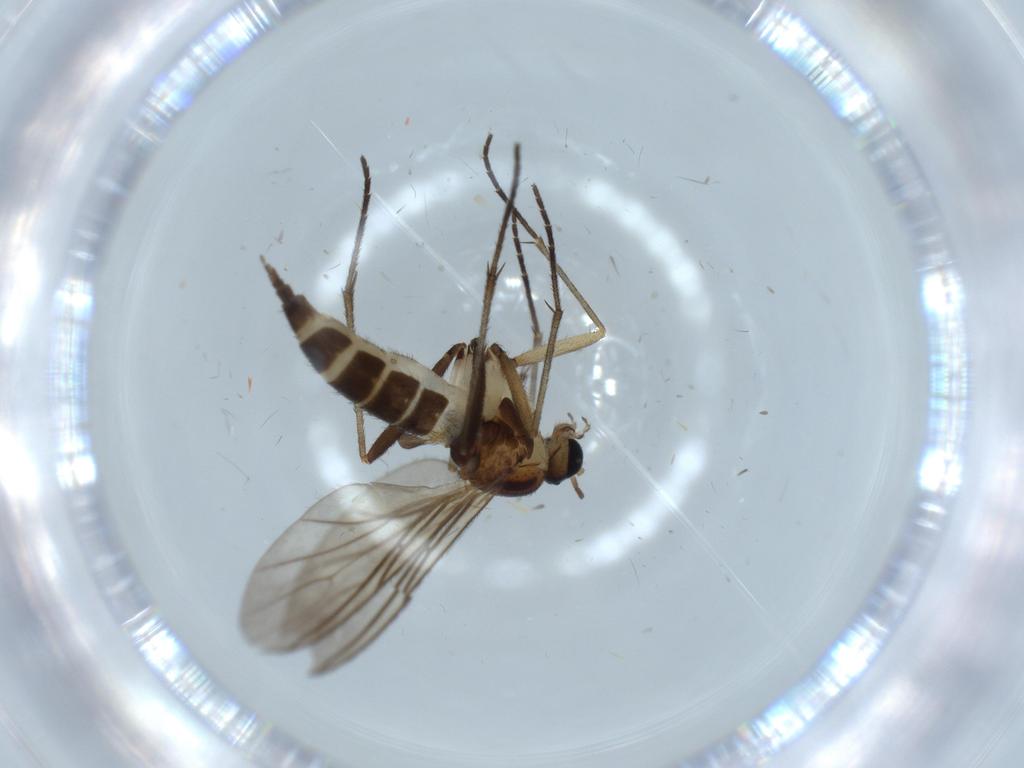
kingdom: Animalia
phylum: Arthropoda
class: Insecta
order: Diptera
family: Sciaridae
